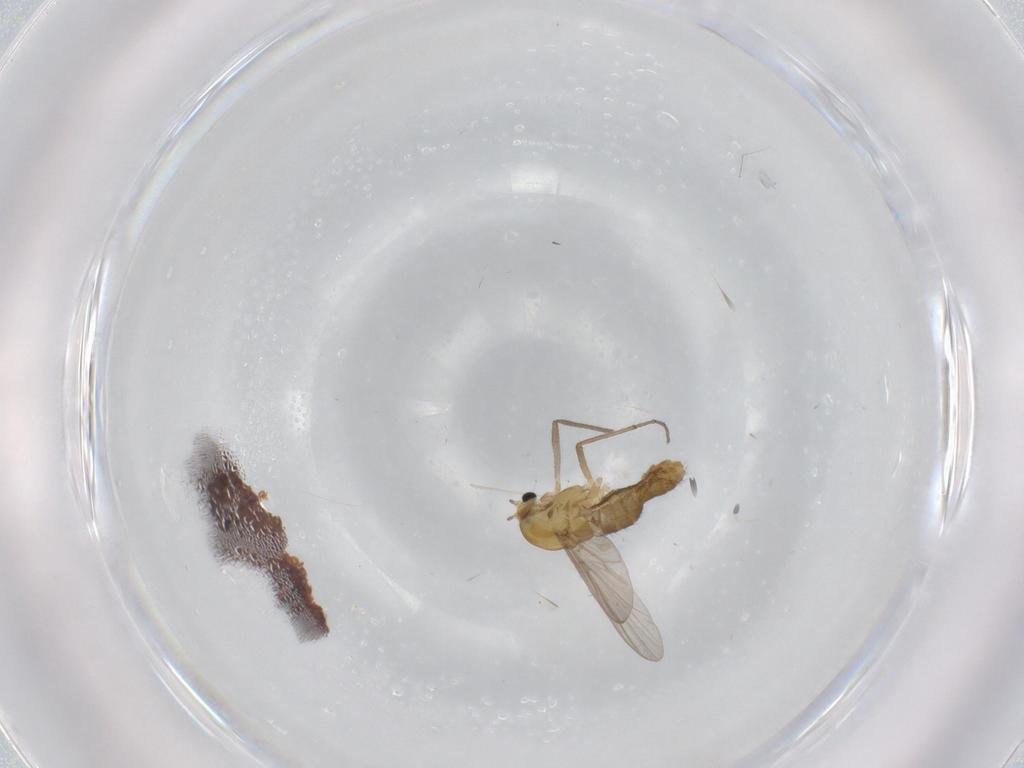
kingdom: Animalia
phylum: Arthropoda
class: Insecta
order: Diptera
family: Chironomidae
